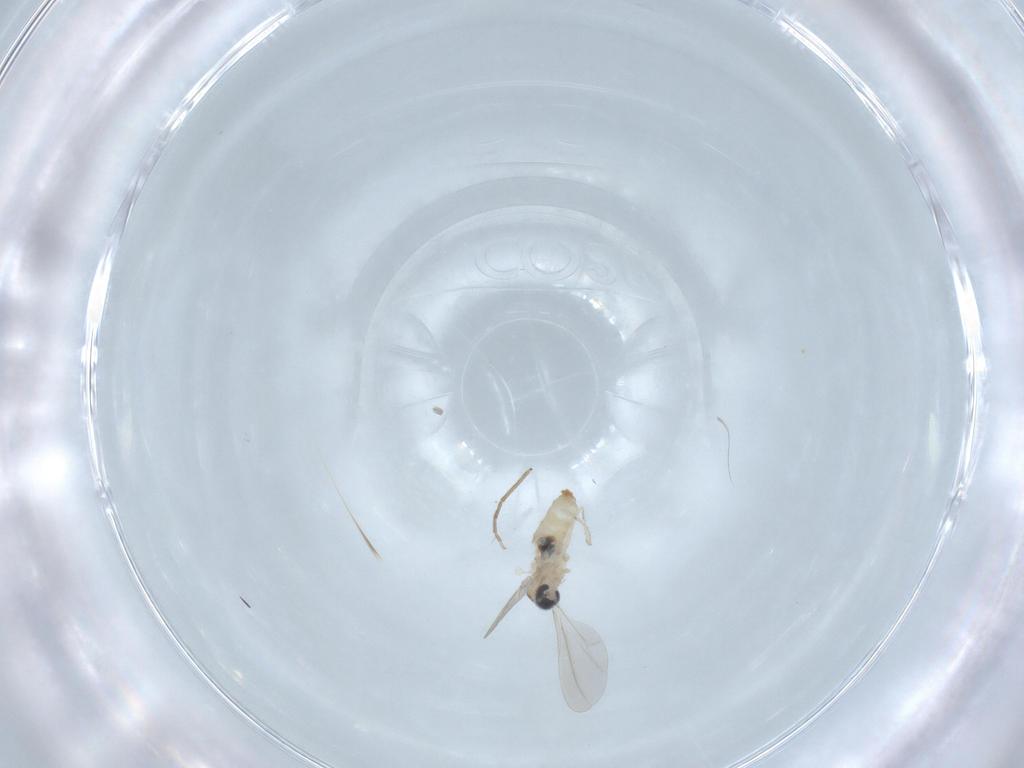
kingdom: Animalia
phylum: Arthropoda
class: Insecta
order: Diptera
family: Cecidomyiidae
